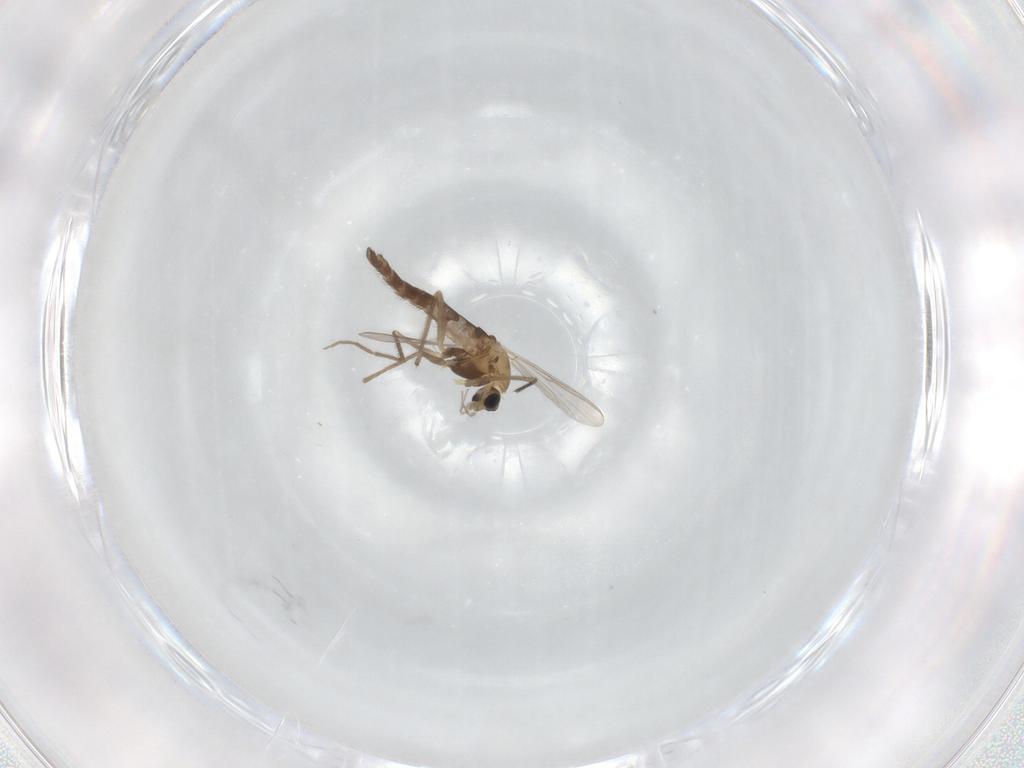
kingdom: Animalia
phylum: Arthropoda
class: Insecta
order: Diptera
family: Chironomidae
